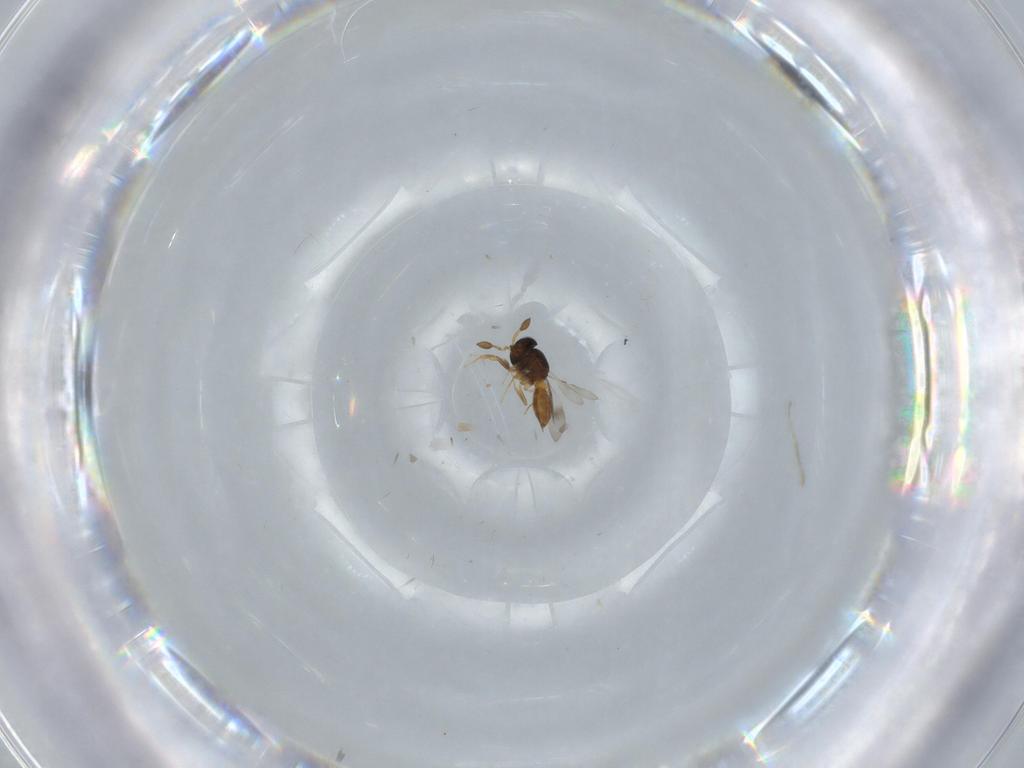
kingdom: Animalia
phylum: Arthropoda
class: Insecta
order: Hymenoptera
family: Scelionidae
